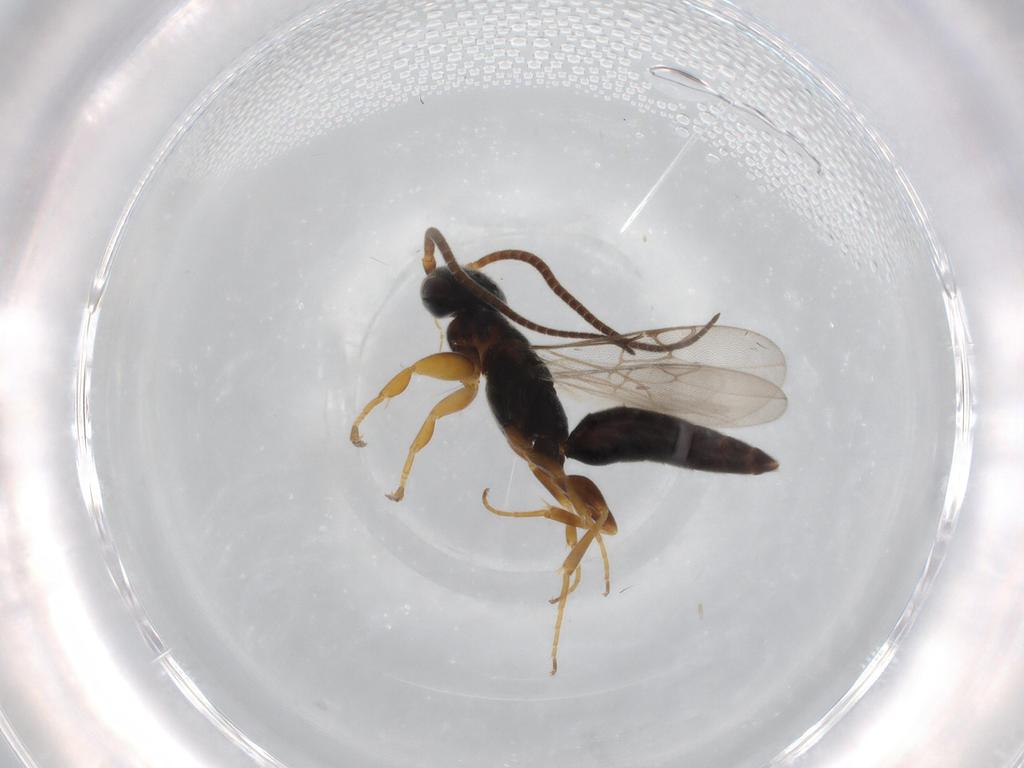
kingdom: Animalia
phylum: Arthropoda
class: Insecta
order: Hymenoptera
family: Sclerogibbidae
